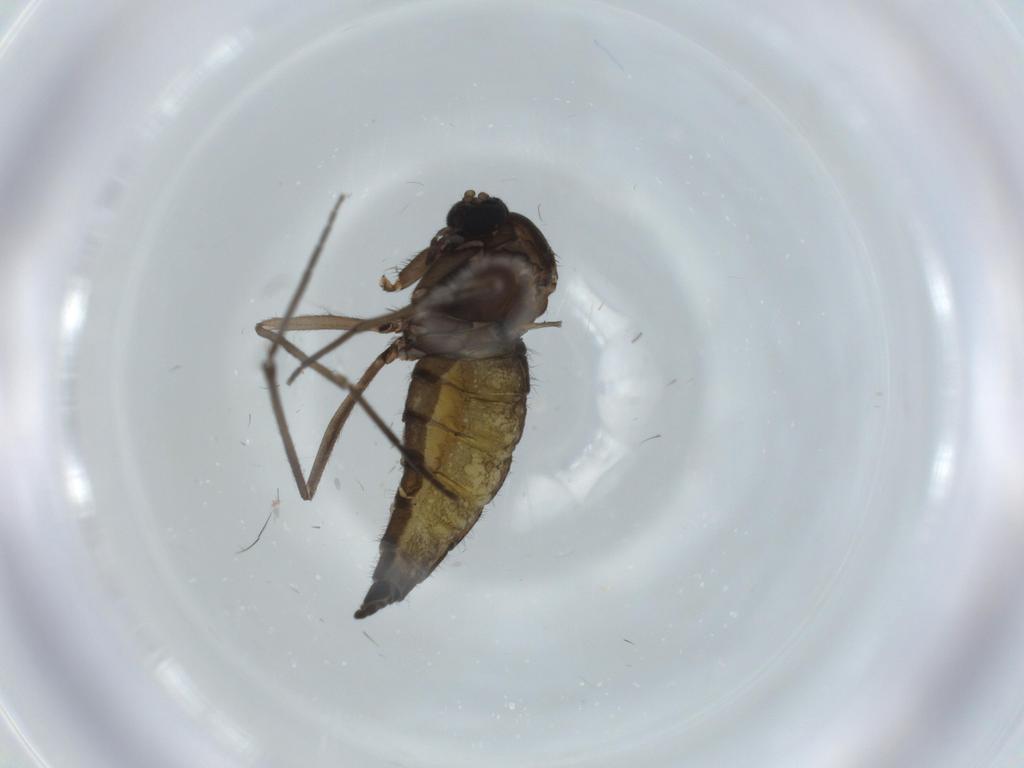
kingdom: Animalia
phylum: Arthropoda
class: Insecta
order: Diptera
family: Sciaridae
